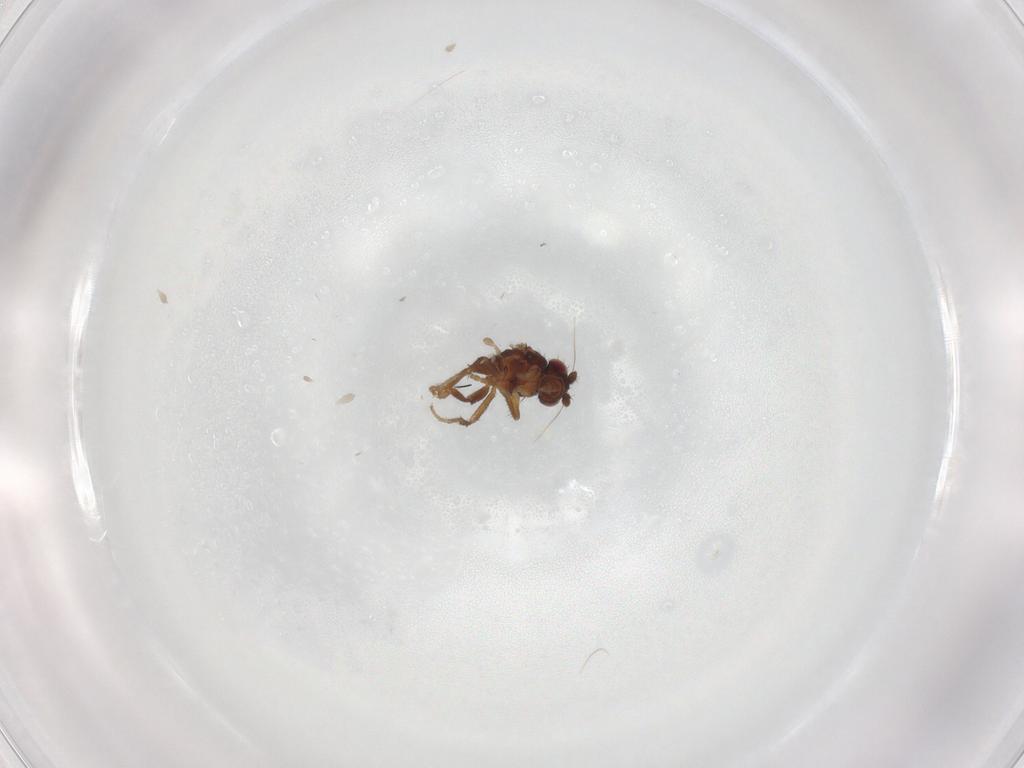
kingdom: Animalia
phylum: Arthropoda
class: Insecta
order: Diptera
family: Sphaeroceridae
